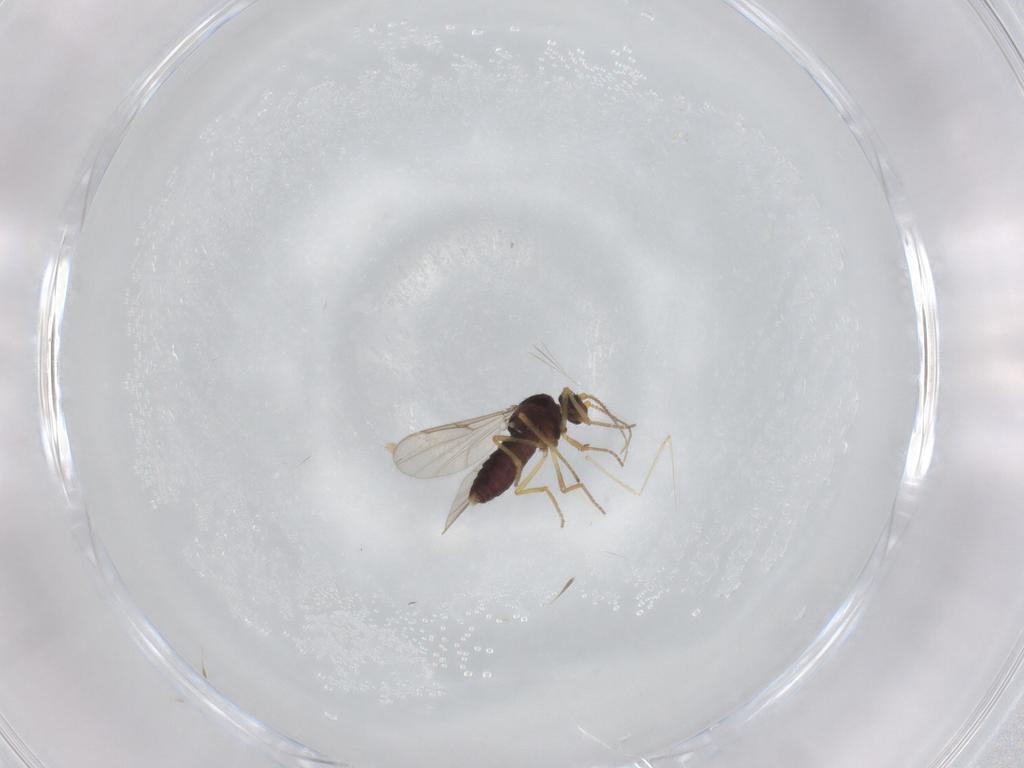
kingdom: Animalia
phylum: Arthropoda
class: Insecta
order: Diptera
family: Ceratopogonidae
